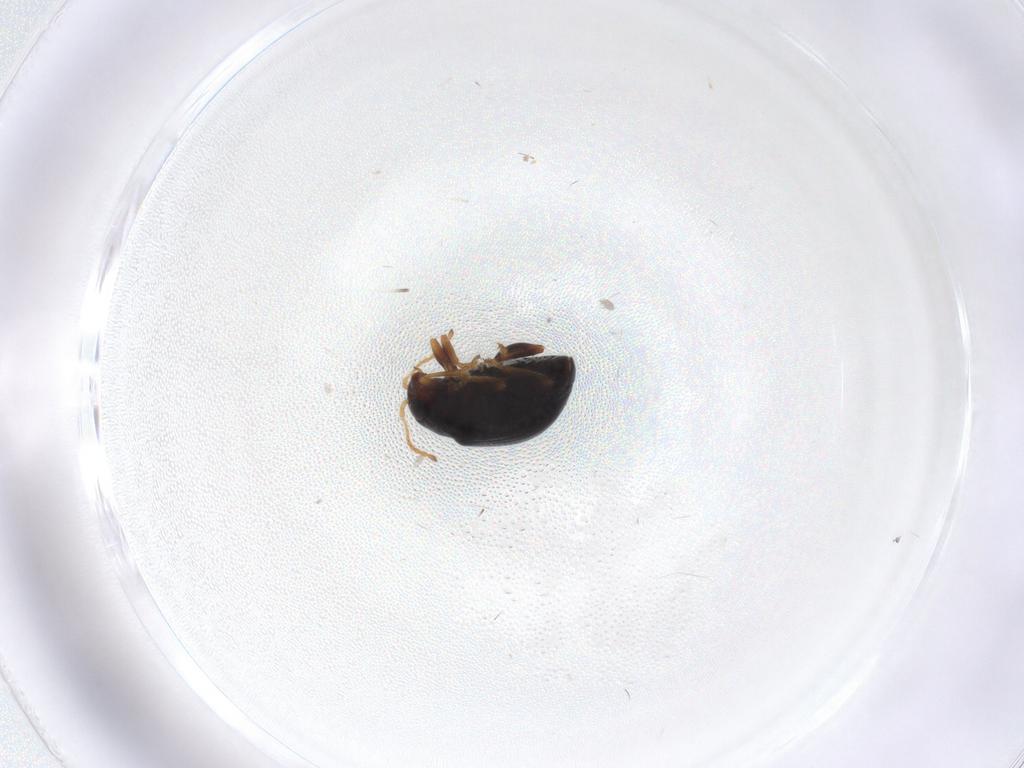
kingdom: Animalia
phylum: Arthropoda
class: Insecta
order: Coleoptera
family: Chrysomelidae
